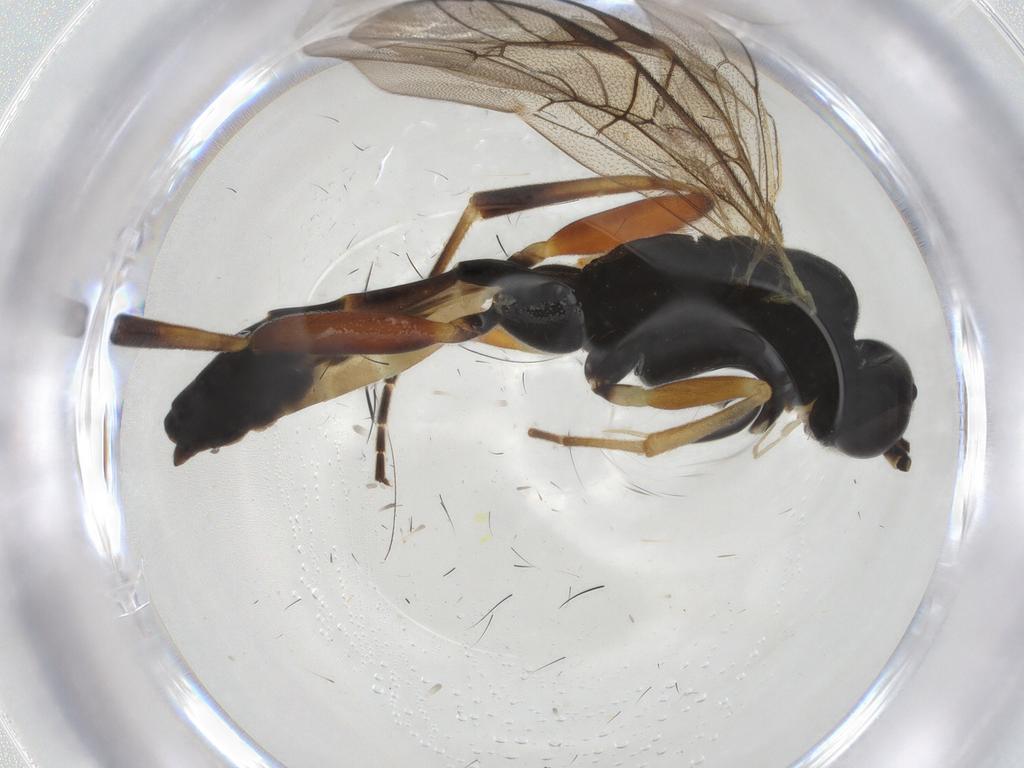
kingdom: Animalia
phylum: Arthropoda
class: Insecta
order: Hymenoptera
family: Ichneumonidae
